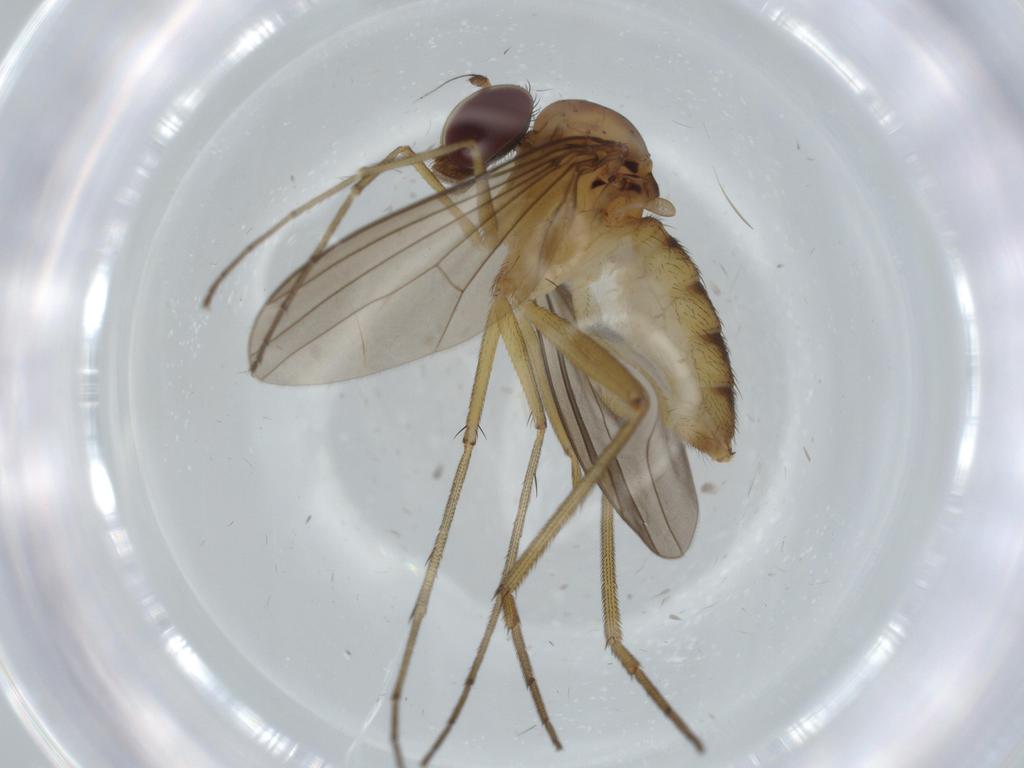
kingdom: Animalia
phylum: Arthropoda
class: Insecta
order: Diptera
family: Dolichopodidae
